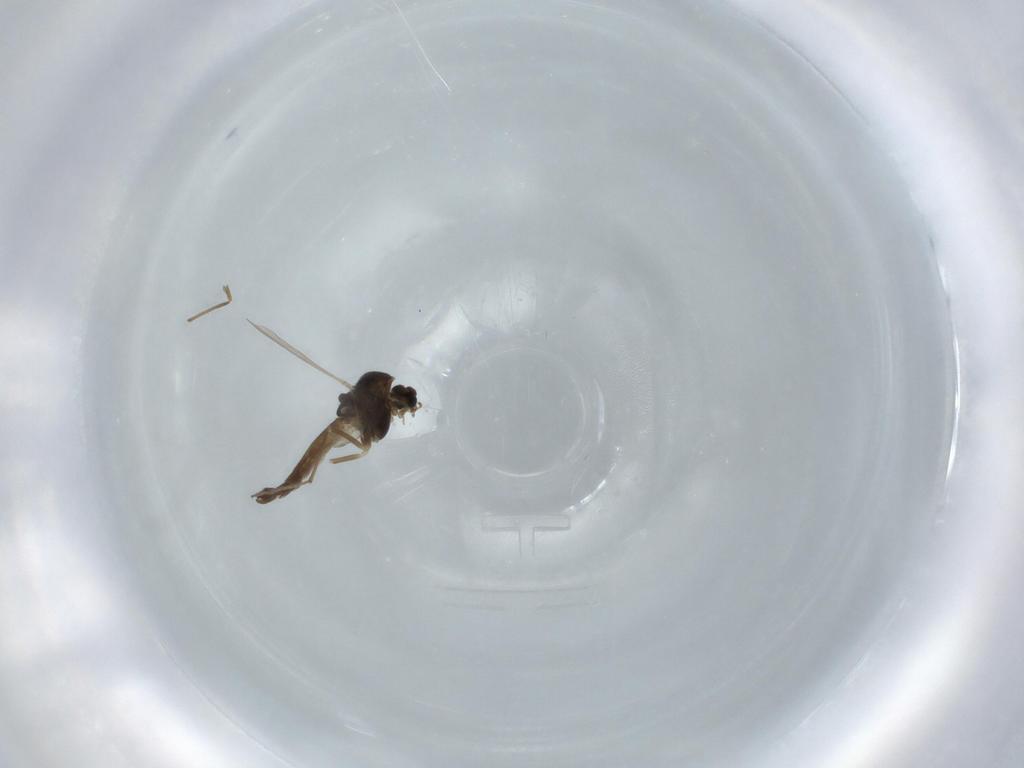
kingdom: Animalia
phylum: Arthropoda
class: Insecta
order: Diptera
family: Chironomidae
